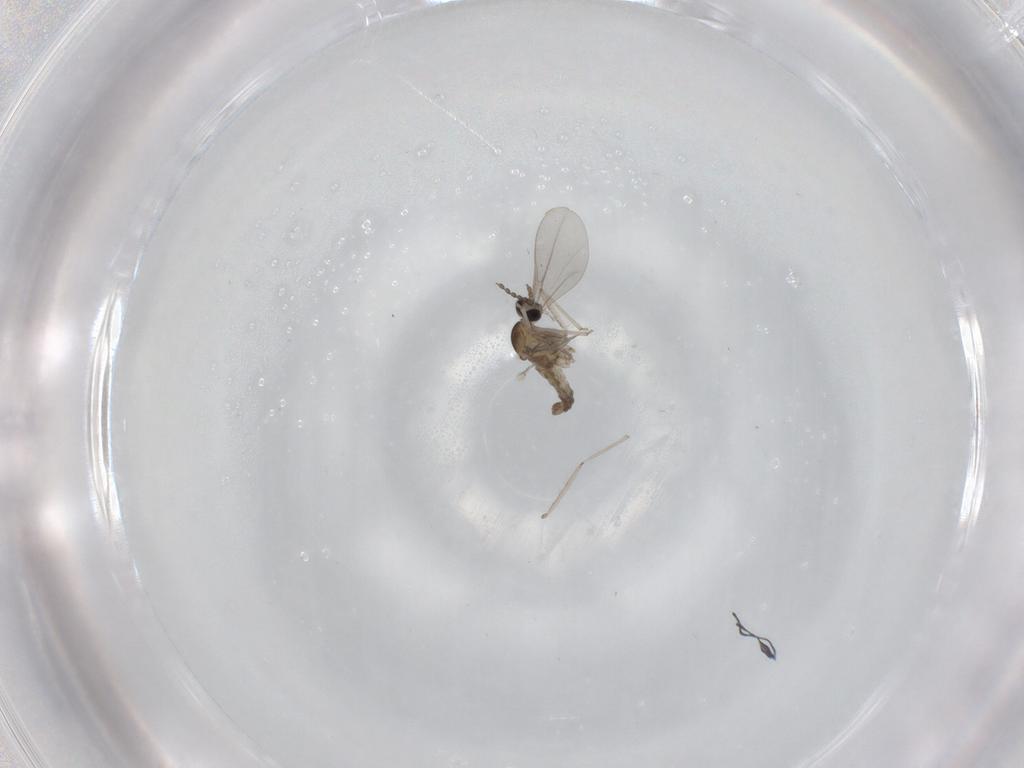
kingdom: Animalia
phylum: Arthropoda
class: Insecta
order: Diptera
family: Cecidomyiidae
